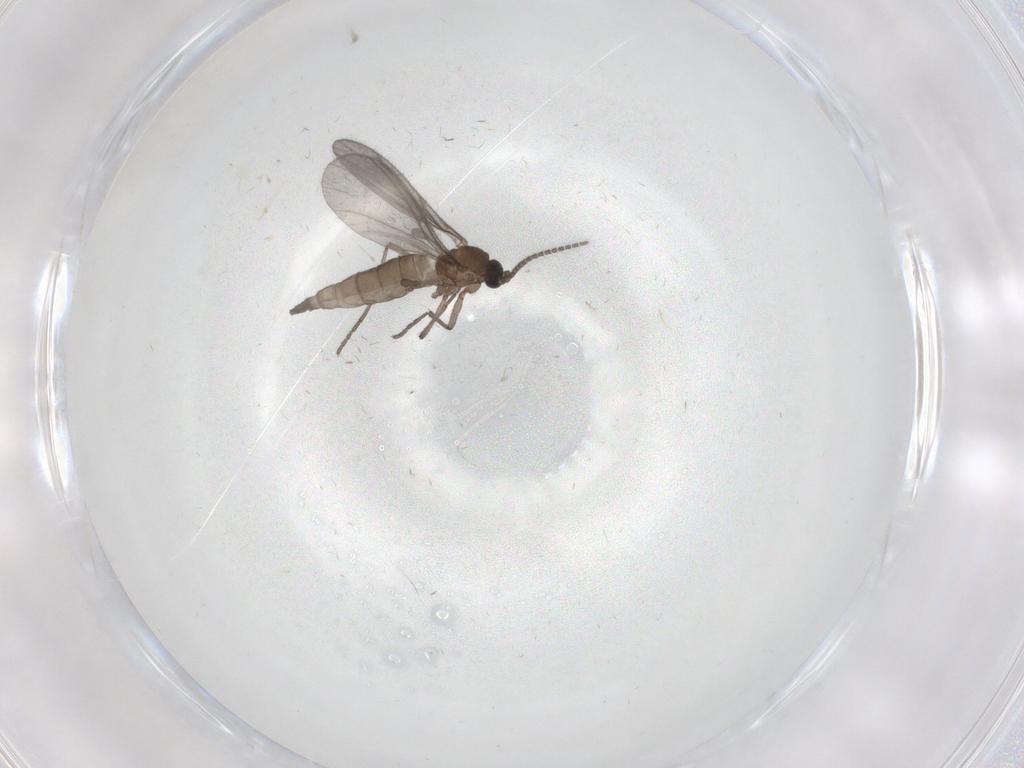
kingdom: Animalia
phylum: Arthropoda
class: Insecta
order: Diptera
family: Sciaridae
